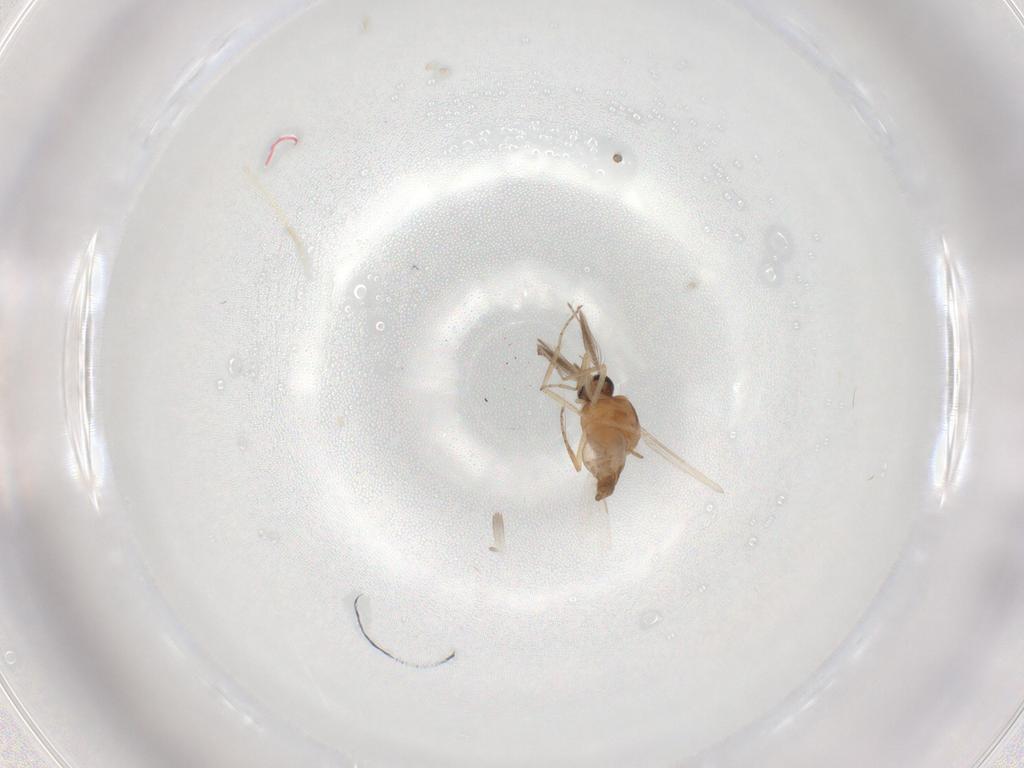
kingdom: Animalia
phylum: Arthropoda
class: Insecta
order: Diptera
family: Ceratopogonidae
